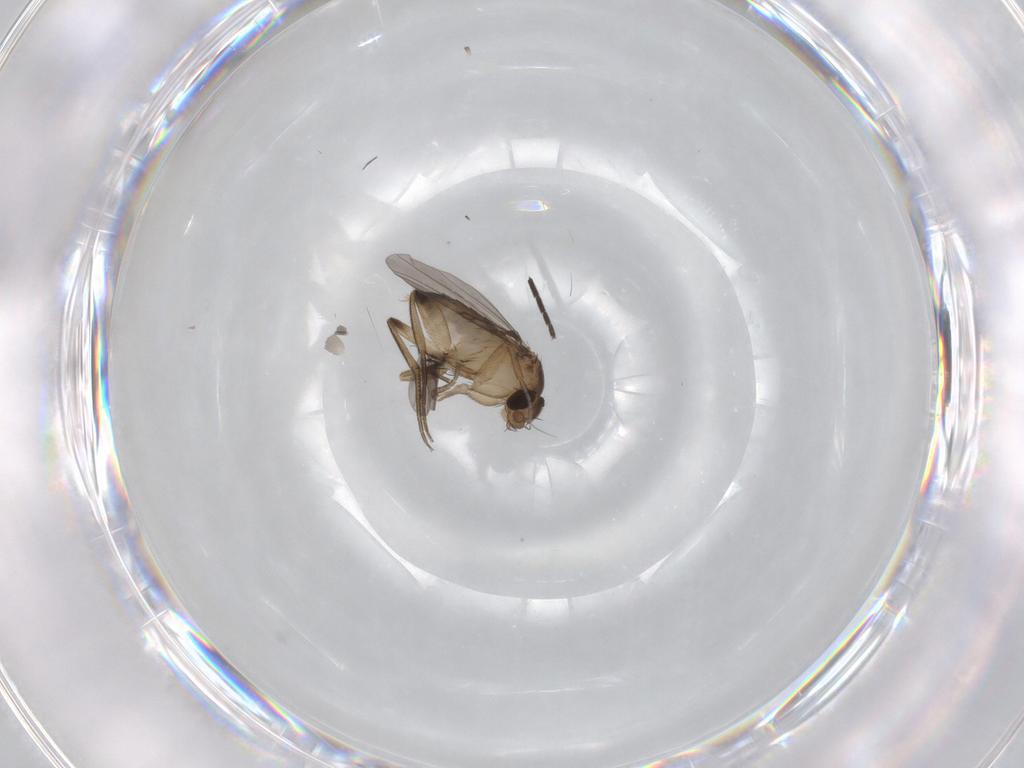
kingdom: Animalia
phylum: Arthropoda
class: Insecta
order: Diptera
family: Phoridae
